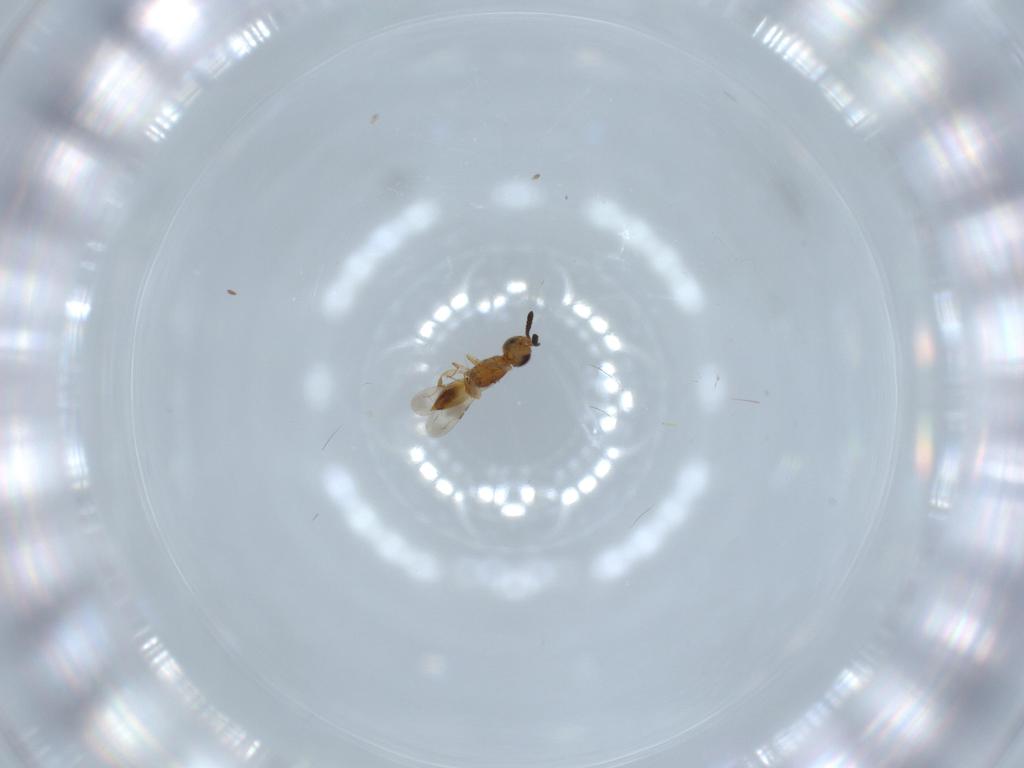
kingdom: Animalia
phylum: Arthropoda
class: Insecta
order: Hymenoptera
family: Ceraphronidae
